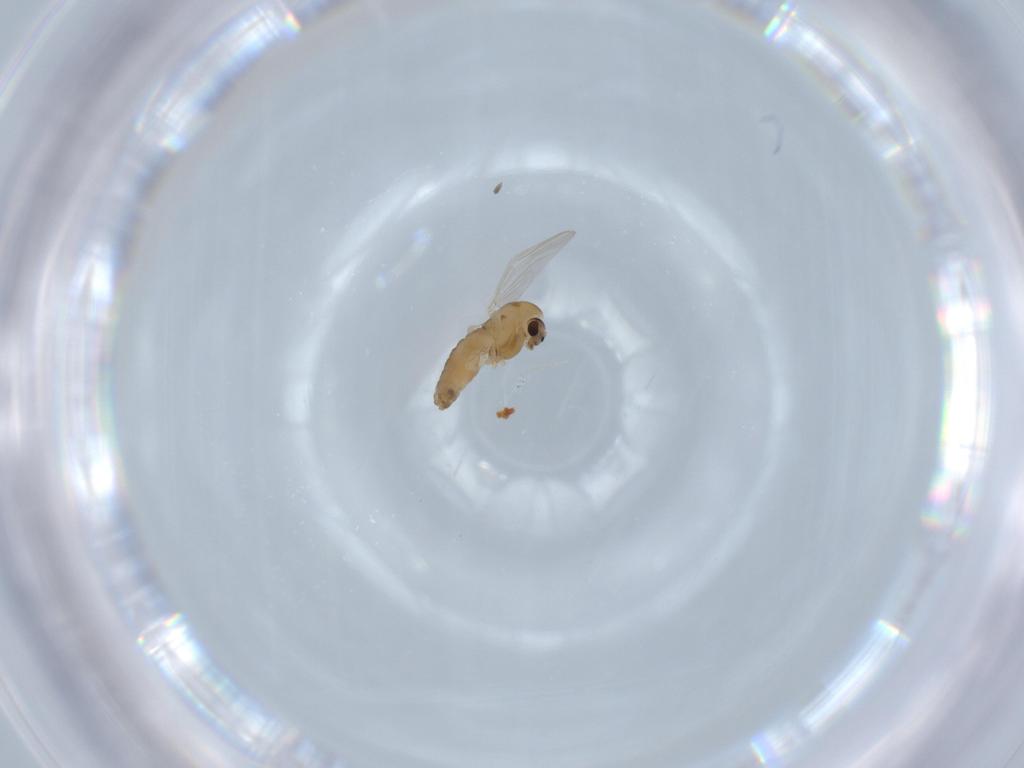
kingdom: Animalia
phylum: Arthropoda
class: Insecta
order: Diptera
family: Chironomidae
